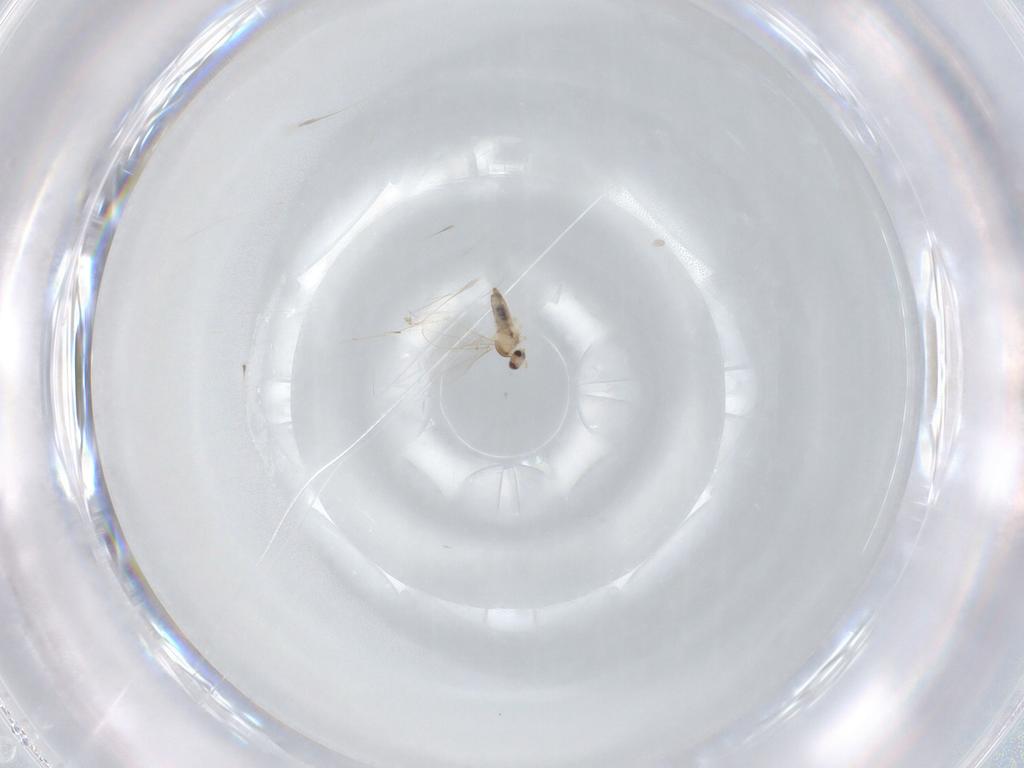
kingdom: Animalia
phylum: Arthropoda
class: Insecta
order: Diptera
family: Cecidomyiidae
